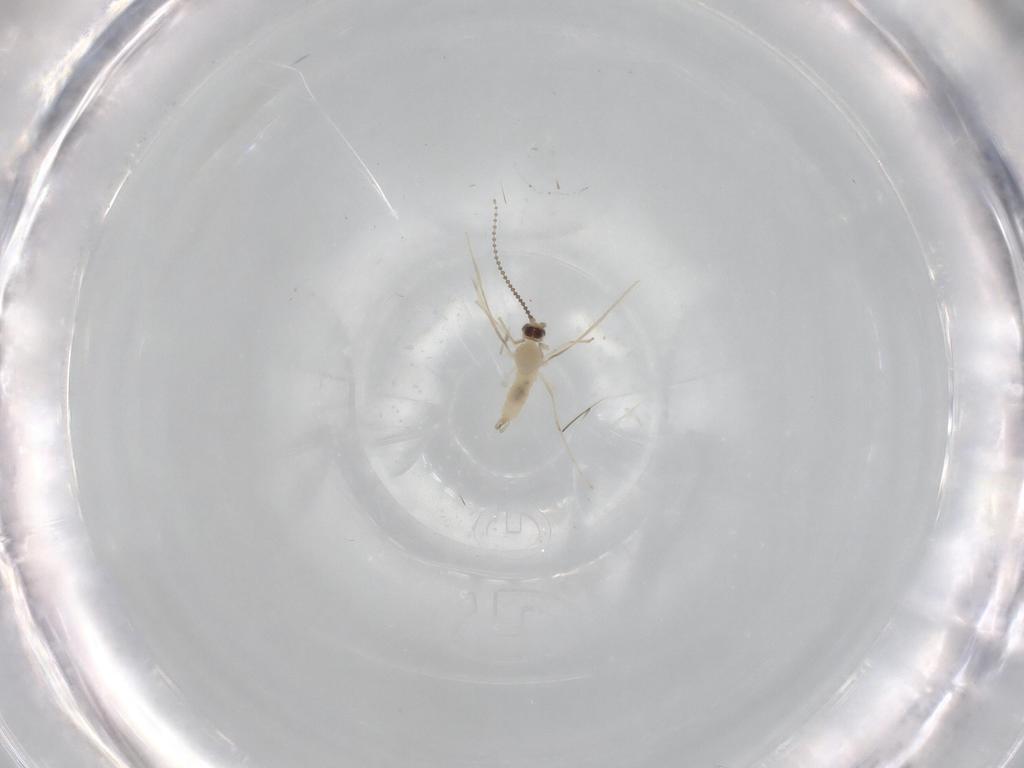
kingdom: Animalia
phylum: Arthropoda
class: Insecta
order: Diptera
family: Cecidomyiidae
